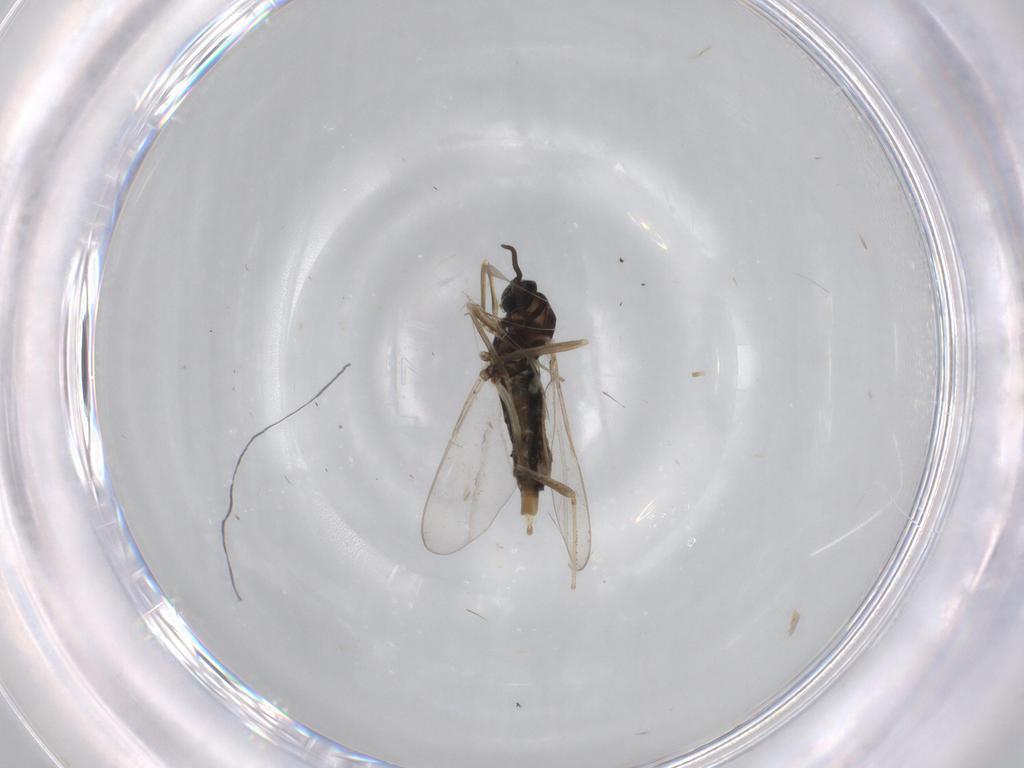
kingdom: Animalia
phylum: Arthropoda
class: Insecta
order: Diptera
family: Cecidomyiidae
